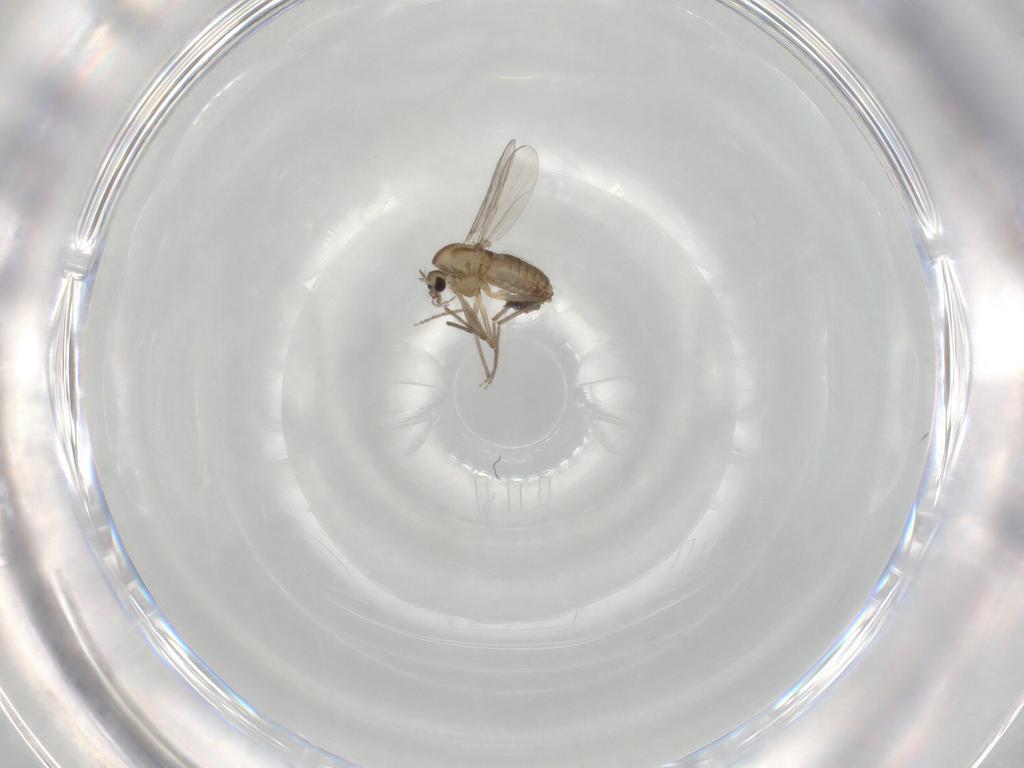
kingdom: Animalia
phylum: Arthropoda
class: Insecta
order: Diptera
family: Chironomidae
